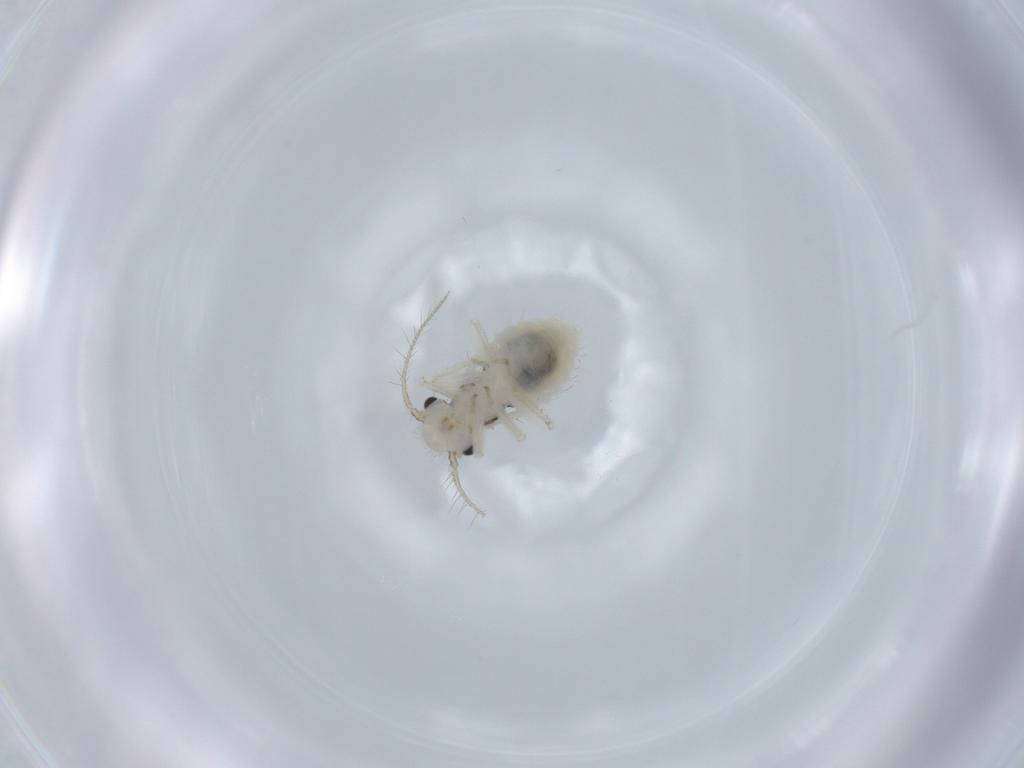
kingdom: Animalia
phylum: Arthropoda
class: Insecta
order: Psocodea
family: Pseudocaeciliidae
